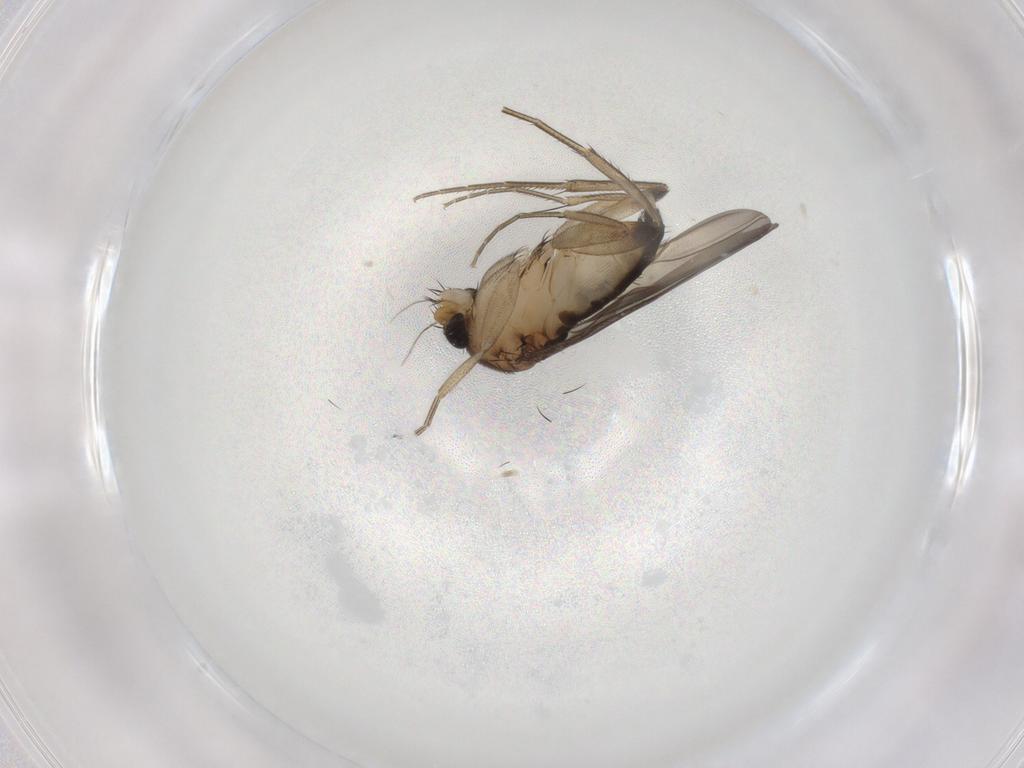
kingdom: Animalia
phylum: Arthropoda
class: Insecta
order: Diptera
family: Phoridae
